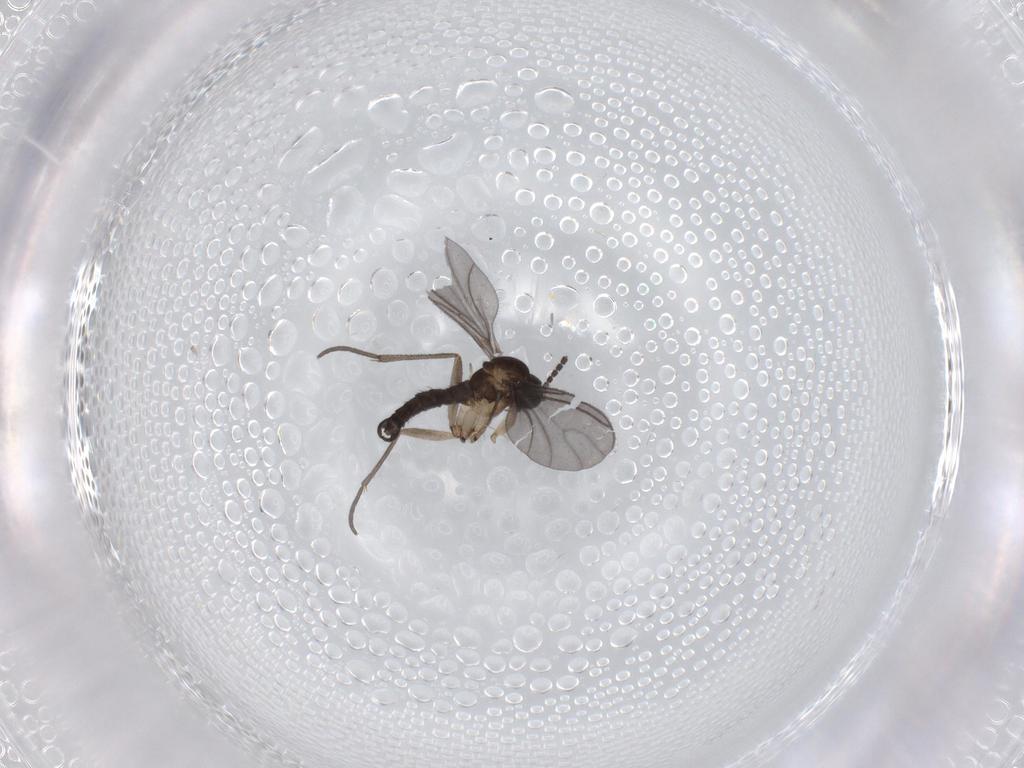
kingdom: Animalia
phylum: Arthropoda
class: Insecta
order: Diptera
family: Sciaridae
